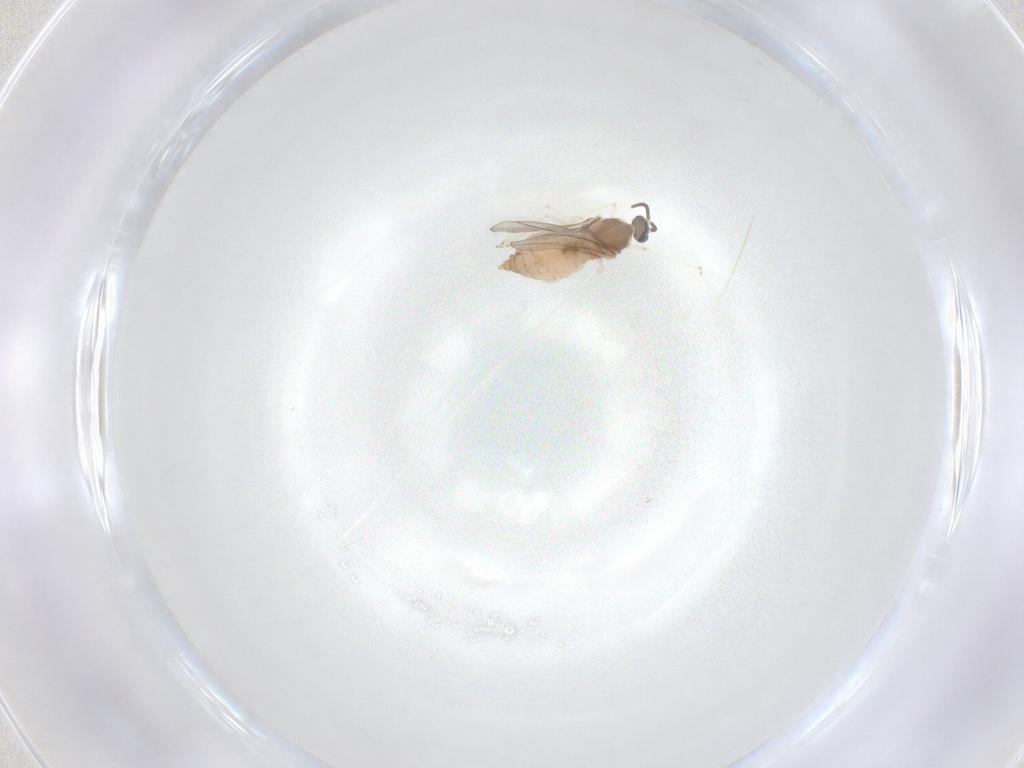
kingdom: Animalia
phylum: Arthropoda
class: Insecta
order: Diptera
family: Cecidomyiidae
